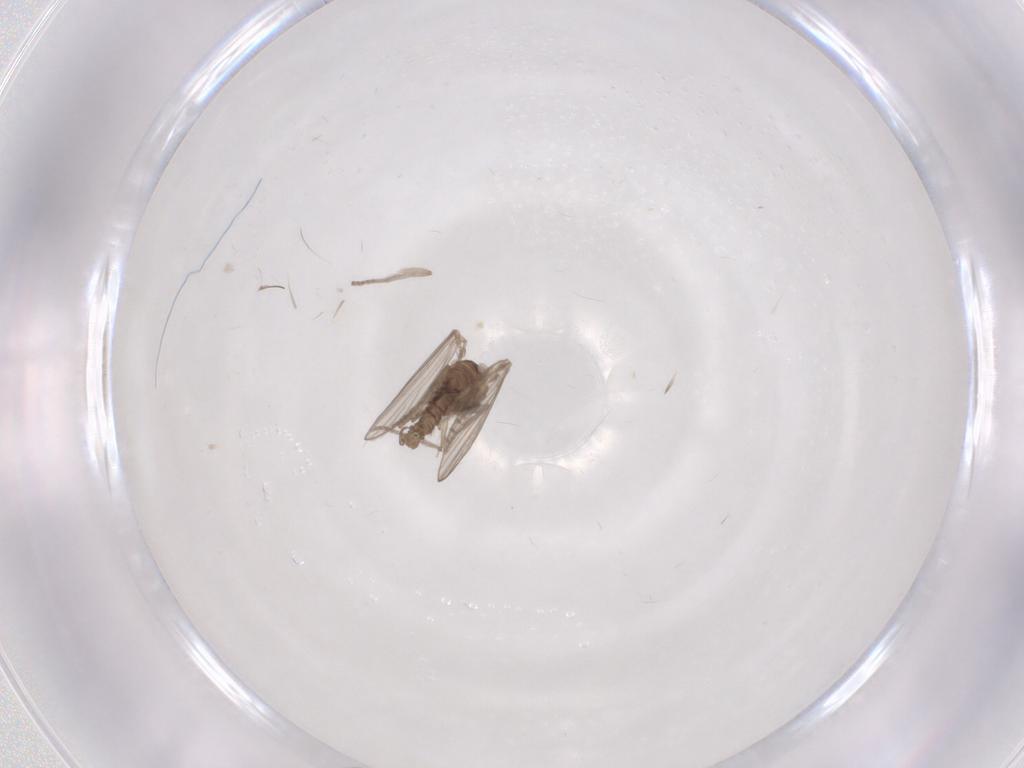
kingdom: Animalia
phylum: Arthropoda
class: Insecta
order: Diptera
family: Psychodidae
